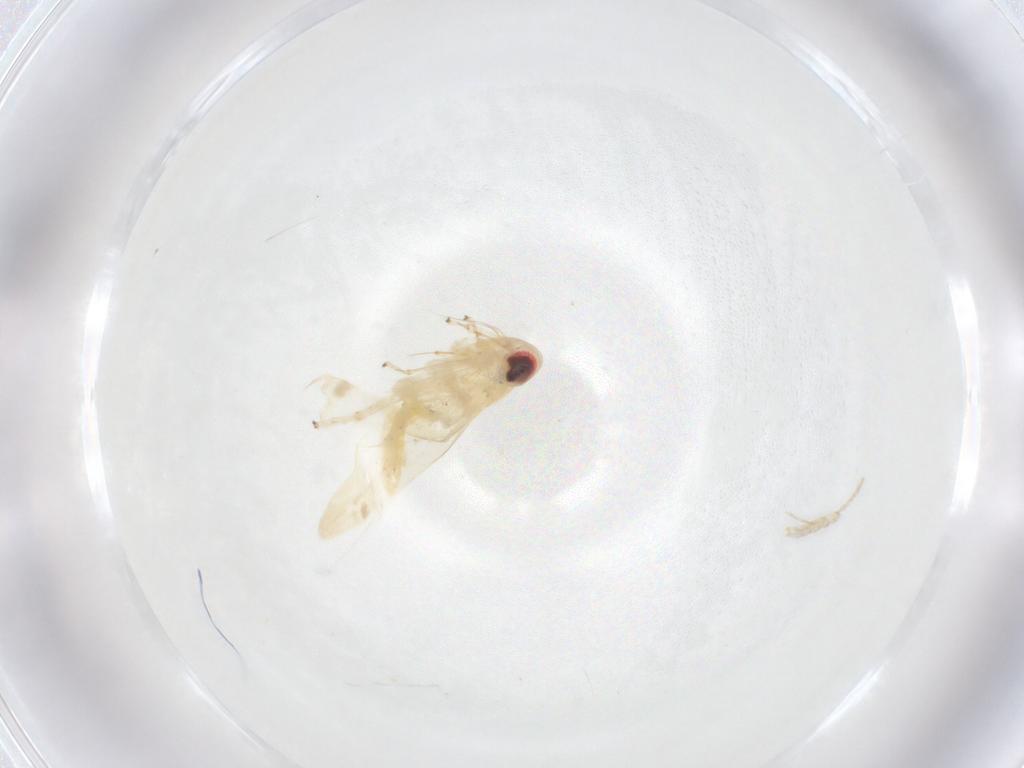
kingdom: Animalia
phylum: Arthropoda
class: Insecta
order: Hemiptera
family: Cicadellidae
